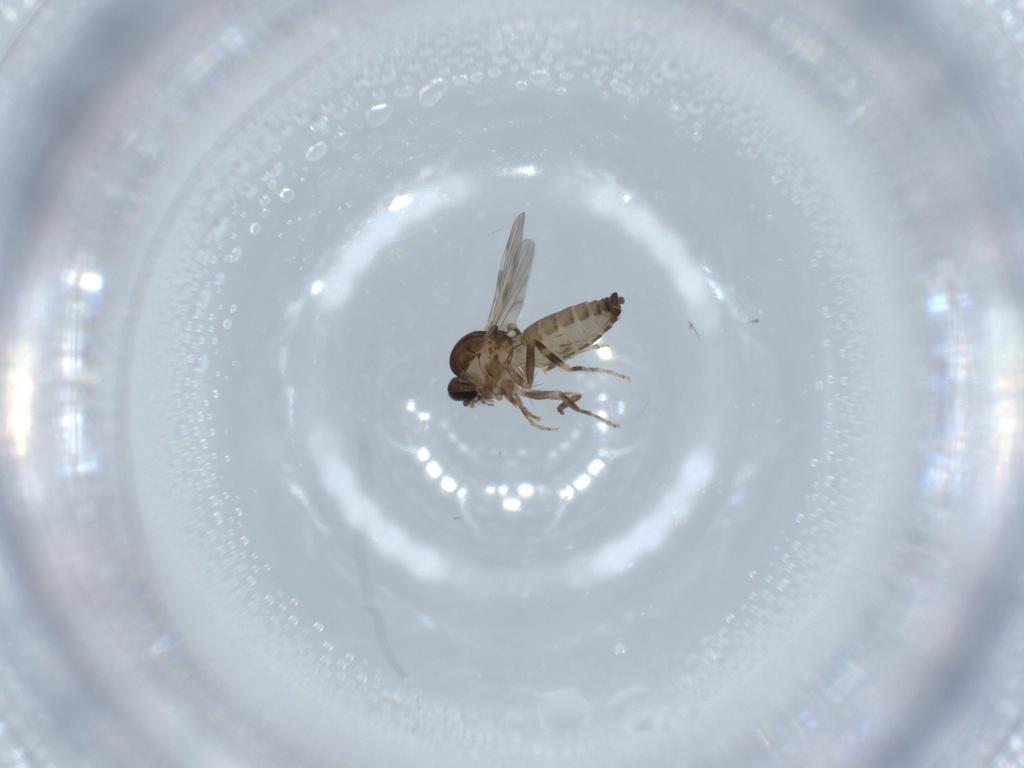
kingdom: Animalia
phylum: Arthropoda
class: Insecta
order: Diptera
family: Ceratopogonidae
